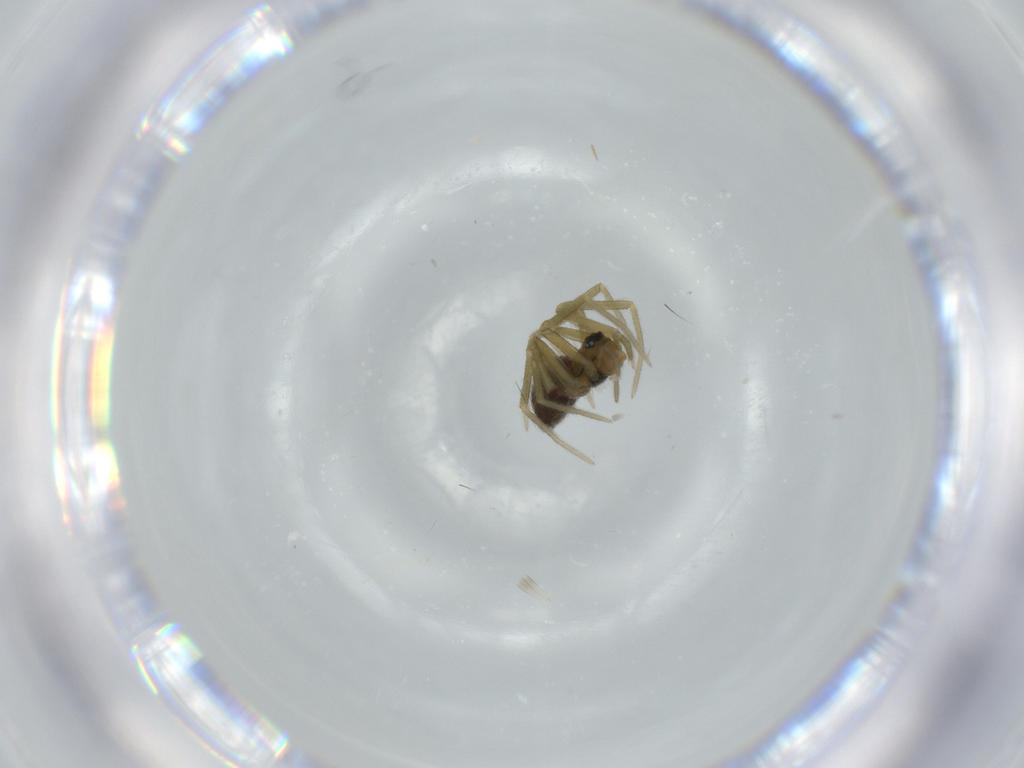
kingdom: Animalia
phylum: Arthropoda
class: Arachnida
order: Araneae
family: Linyphiidae
